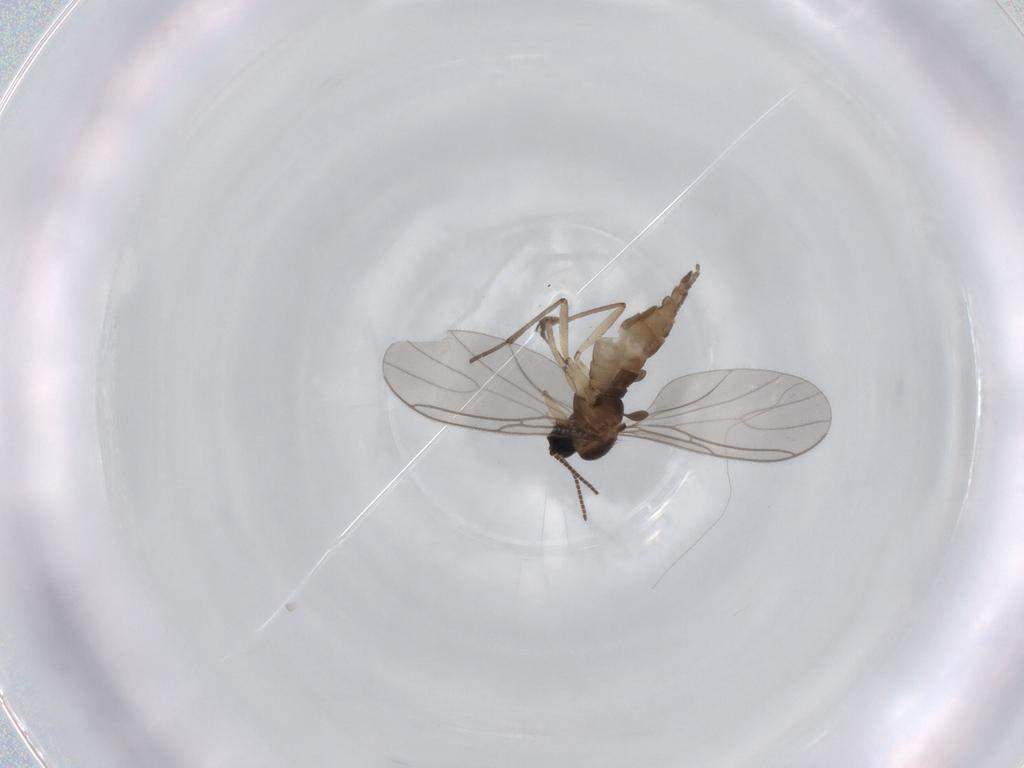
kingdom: Animalia
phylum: Arthropoda
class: Insecta
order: Diptera
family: Sciaridae
